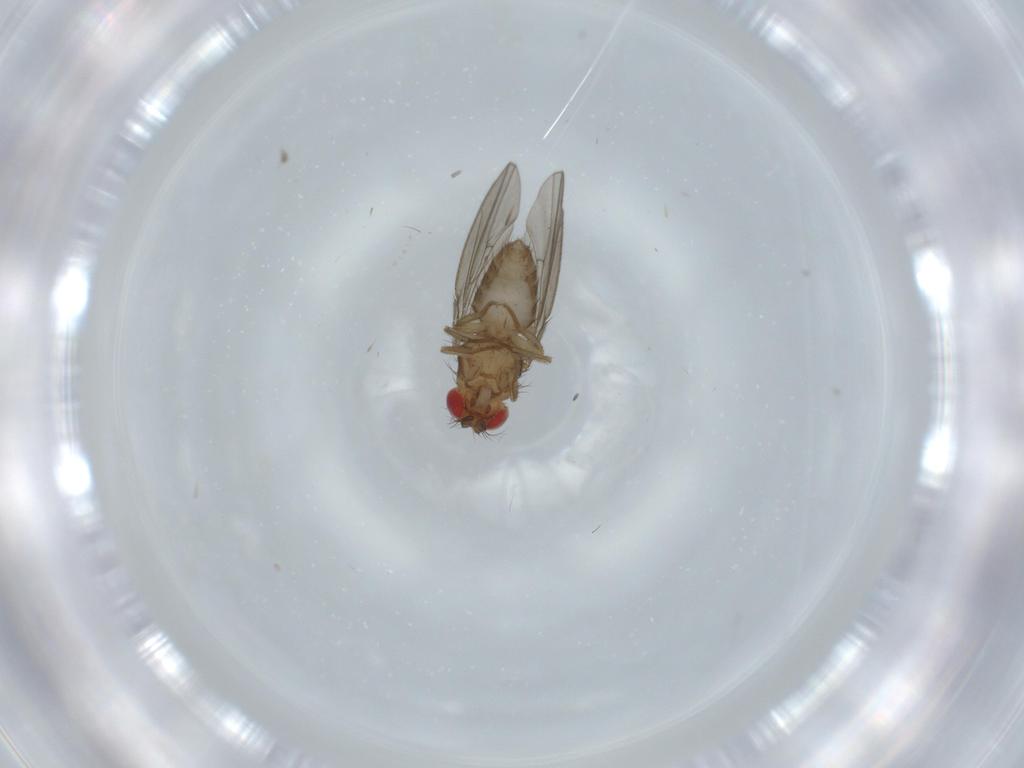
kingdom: Animalia
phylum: Arthropoda
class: Insecta
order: Diptera
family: Drosophilidae
